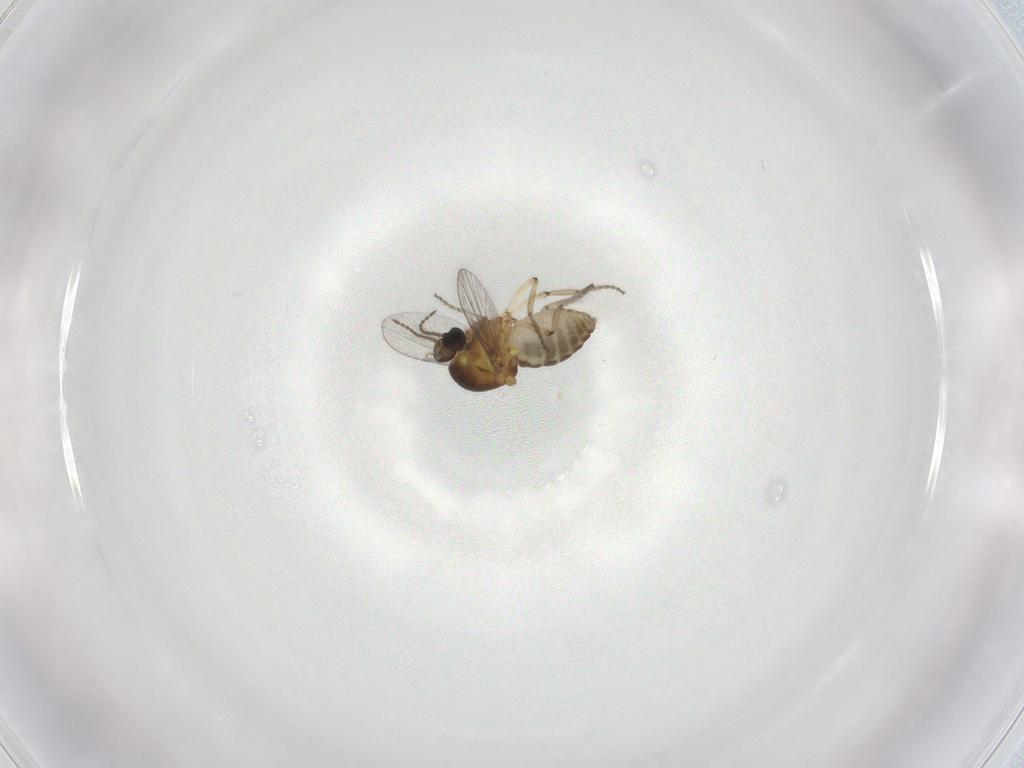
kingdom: Animalia
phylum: Arthropoda
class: Insecta
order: Diptera
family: Ceratopogonidae
